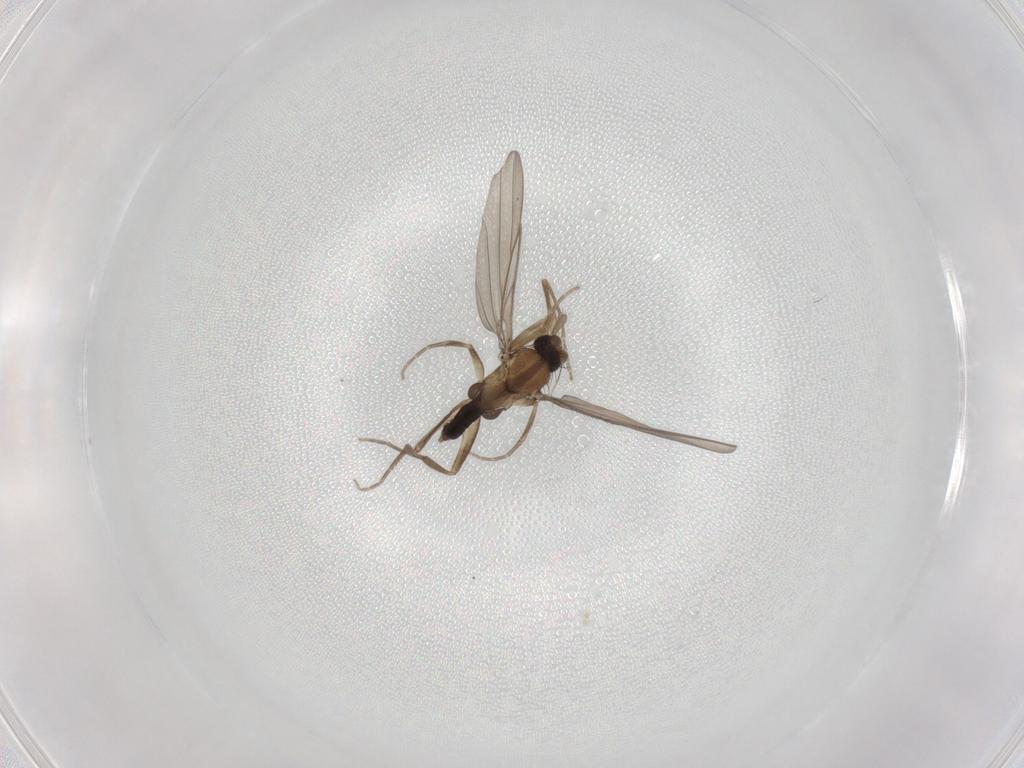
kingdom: Animalia
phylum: Arthropoda
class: Insecta
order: Diptera
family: Phoridae
